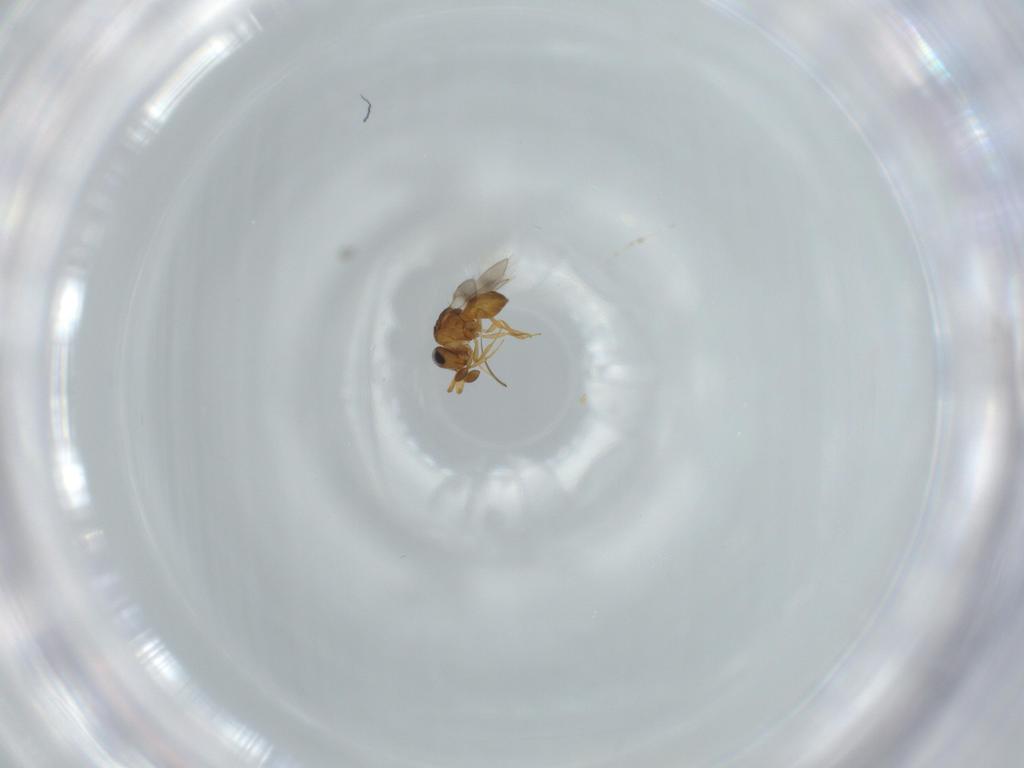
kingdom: Animalia
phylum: Arthropoda
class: Insecta
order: Hymenoptera
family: Scelionidae
